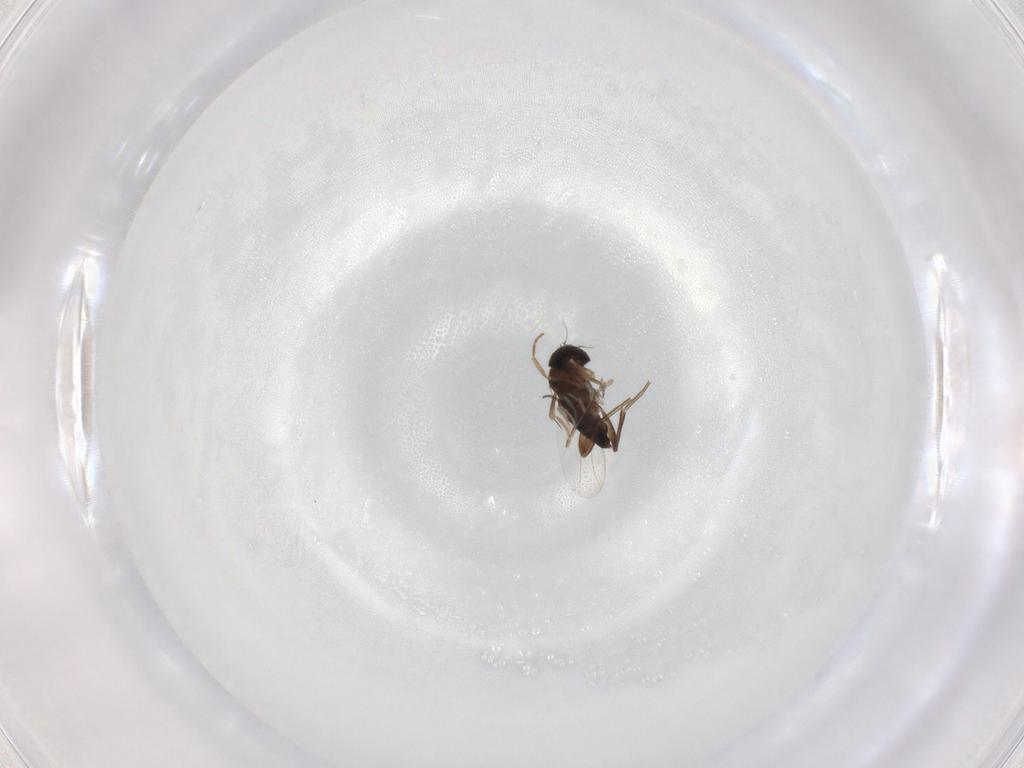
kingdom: Animalia
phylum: Arthropoda
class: Insecta
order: Diptera
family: Phoridae
